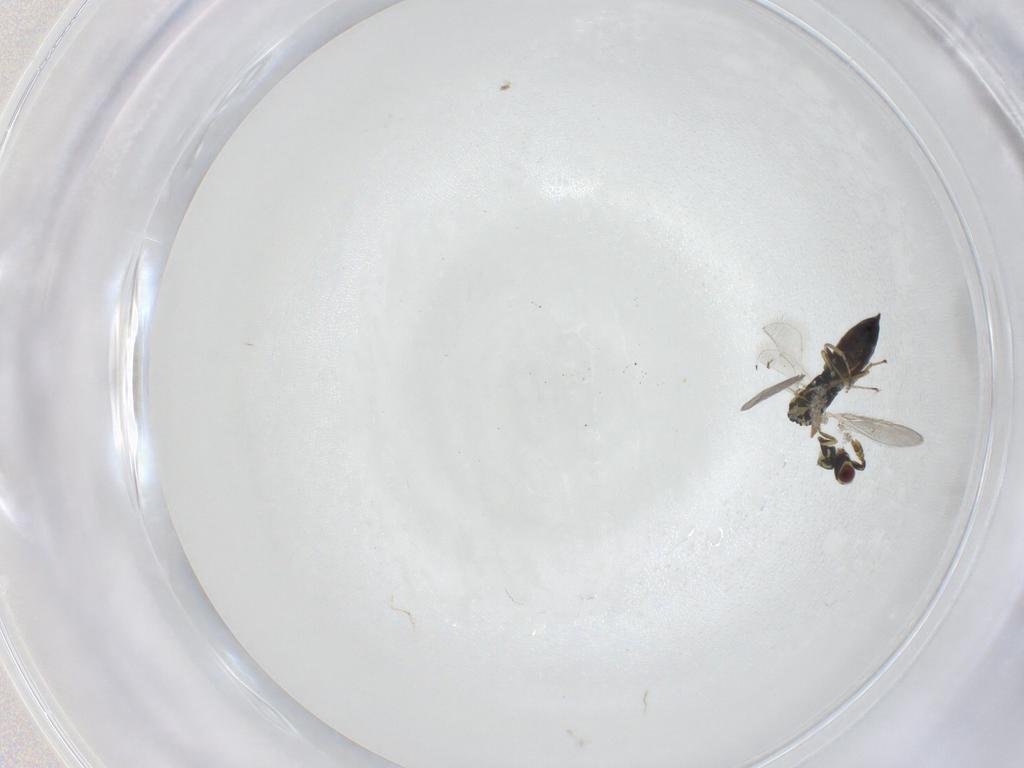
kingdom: Animalia
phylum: Arthropoda
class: Insecta
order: Hymenoptera
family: Eulophidae
